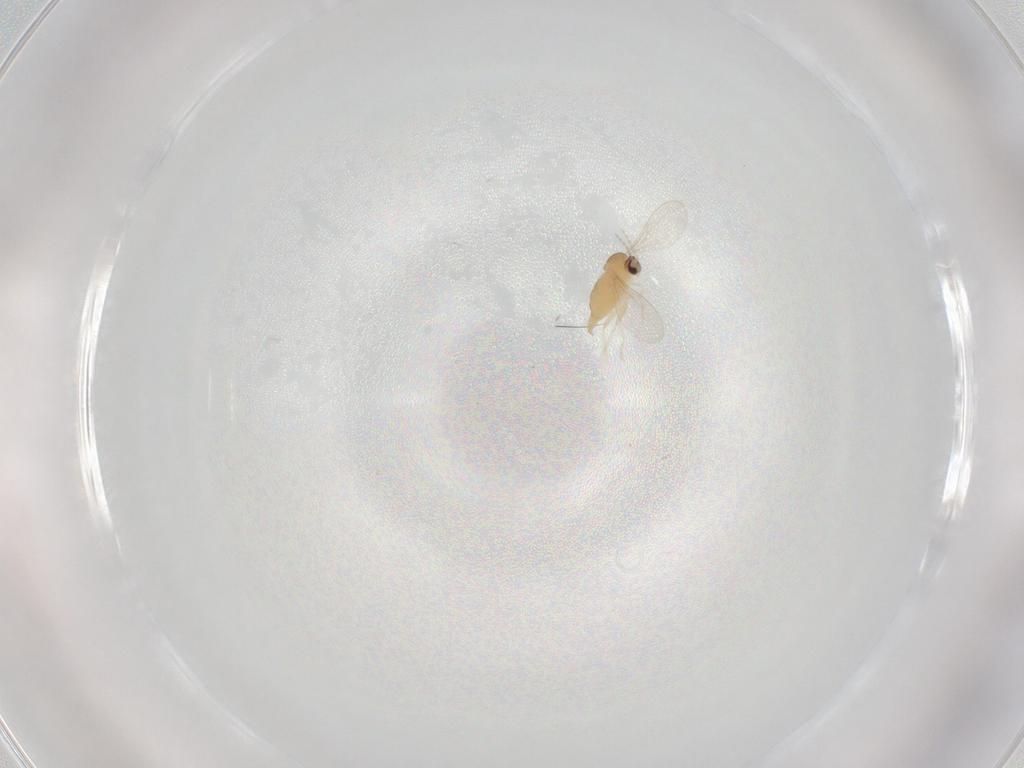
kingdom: Animalia
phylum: Arthropoda
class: Insecta
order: Diptera
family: Cecidomyiidae
